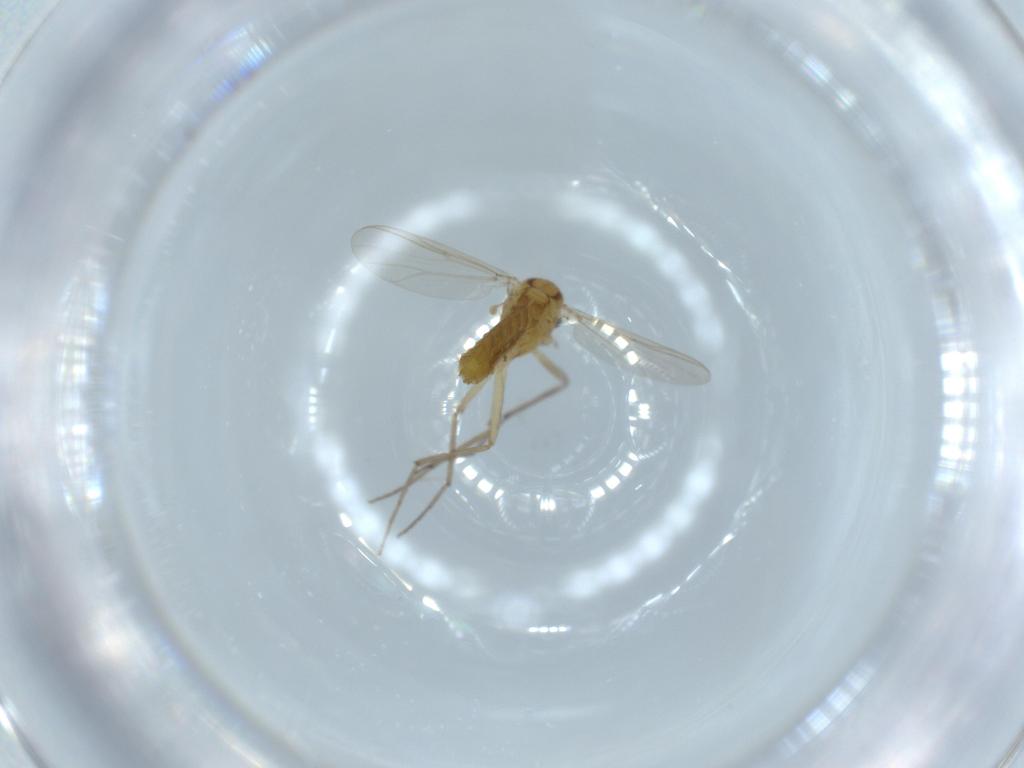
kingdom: Animalia
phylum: Arthropoda
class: Insecta
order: Diptera
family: Chironomidae
